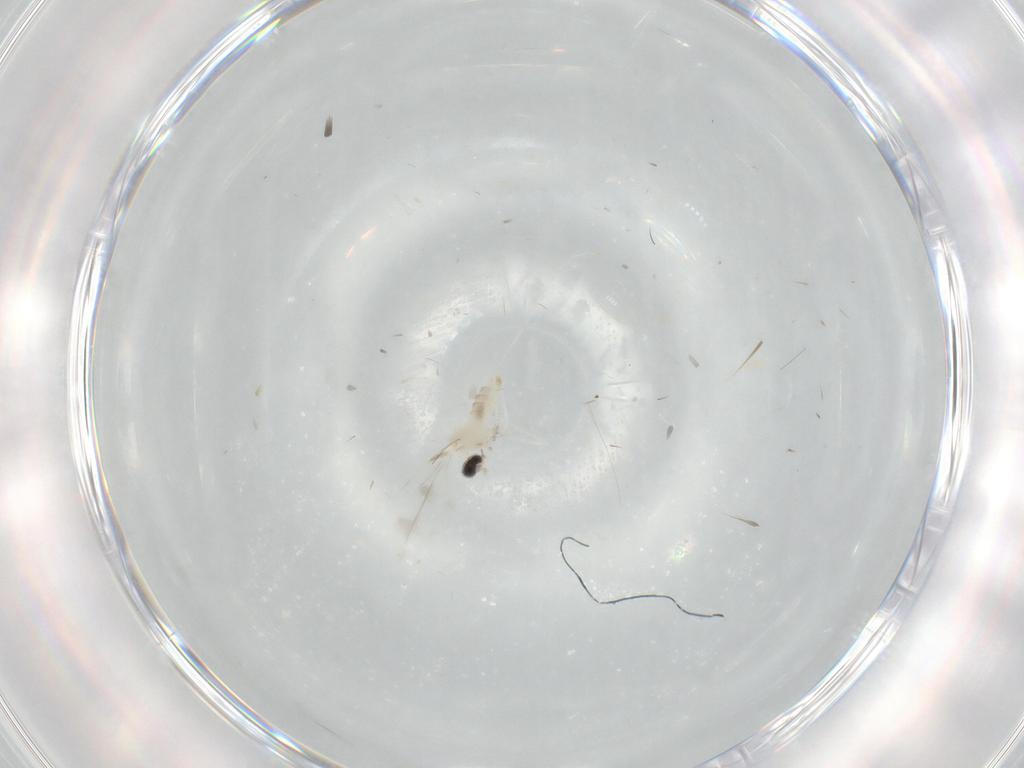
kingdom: Animalia
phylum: Arthropoda
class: Insecta
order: Diptera
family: Cecidomyiidae
